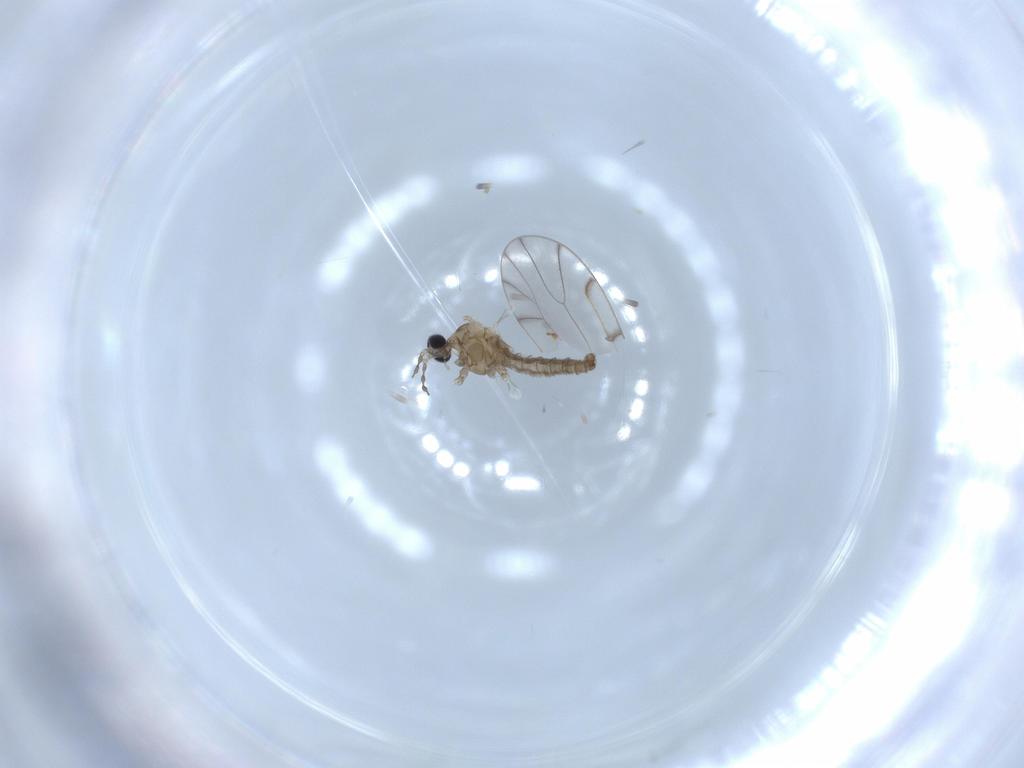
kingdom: Animalia
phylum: Arthropoda
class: Insecta
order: Diptera
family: Cecidomyiidae
